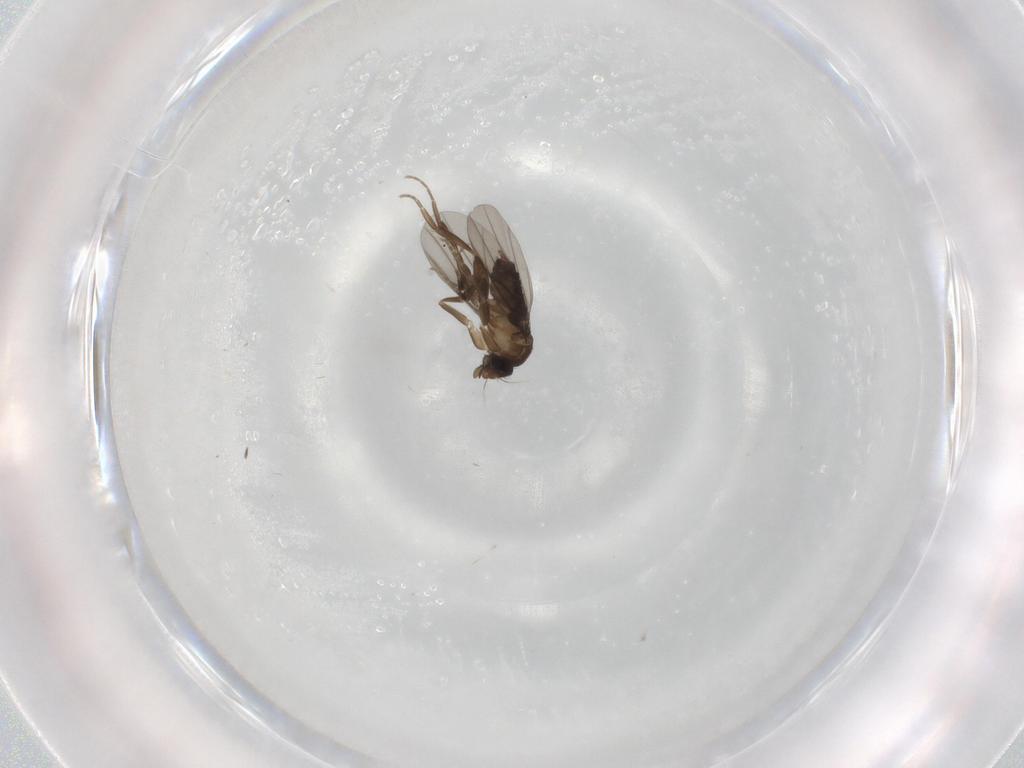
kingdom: Animalia
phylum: Arthropoda
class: Insecta
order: Diptera
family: Phoridae
